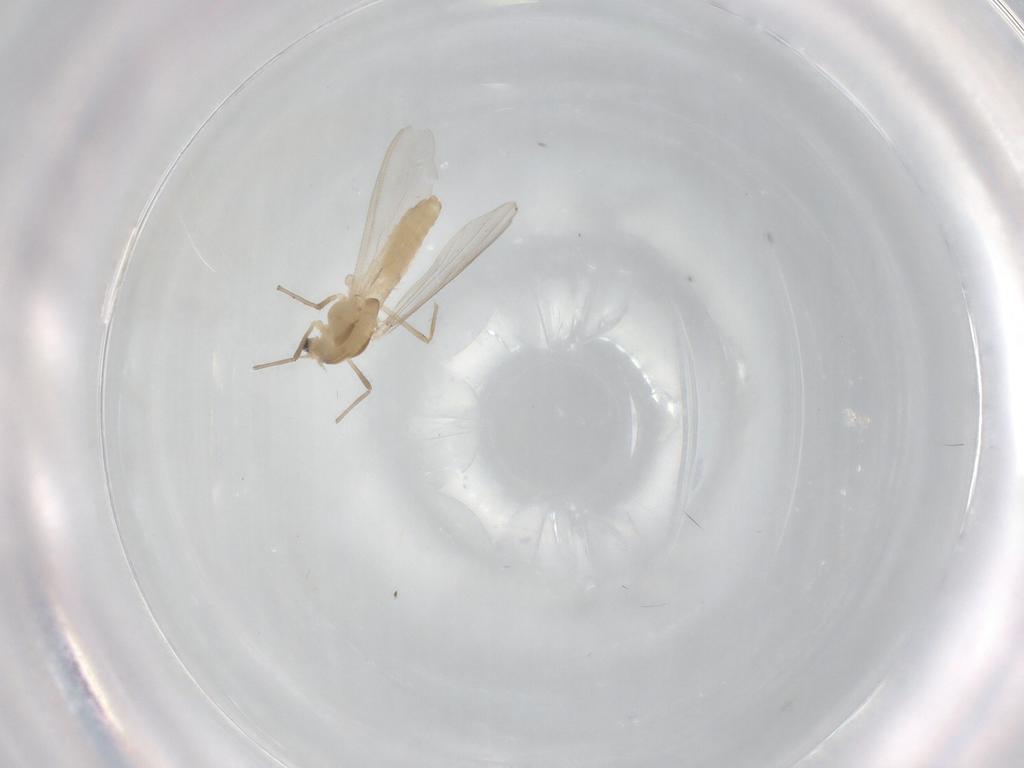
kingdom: Animalia
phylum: Arthropoda
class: Insecta
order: Diptera
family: Chironomidae
